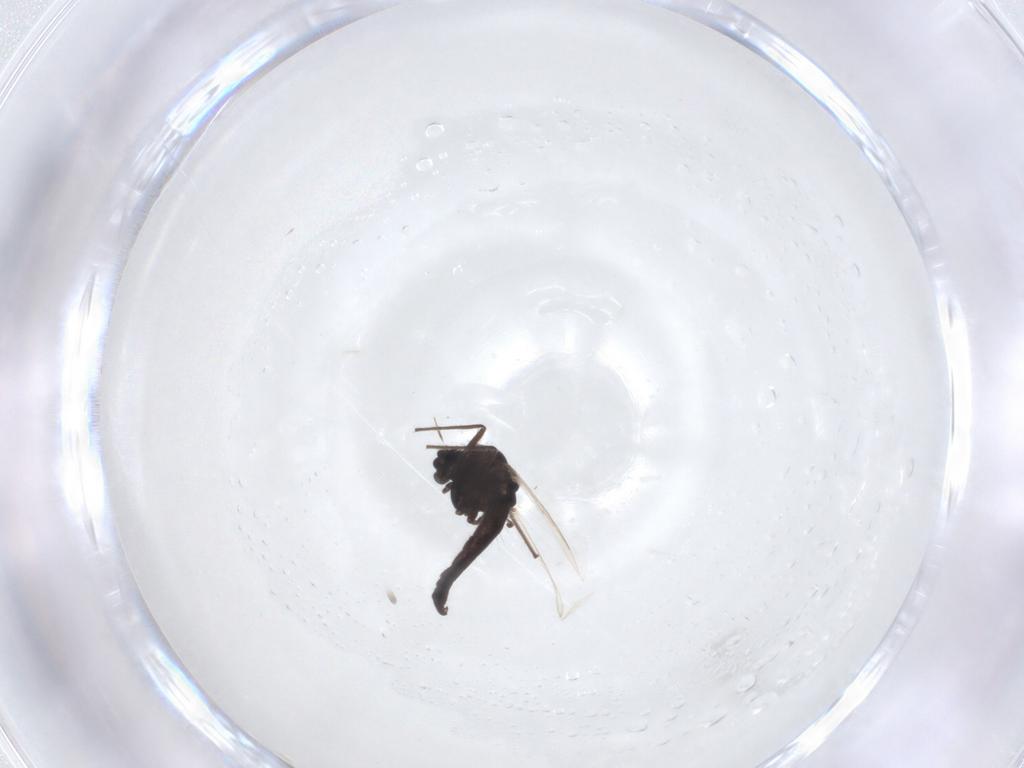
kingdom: Animalia
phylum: Arthropoda
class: Insecta
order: Diptera
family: Chironomidae
